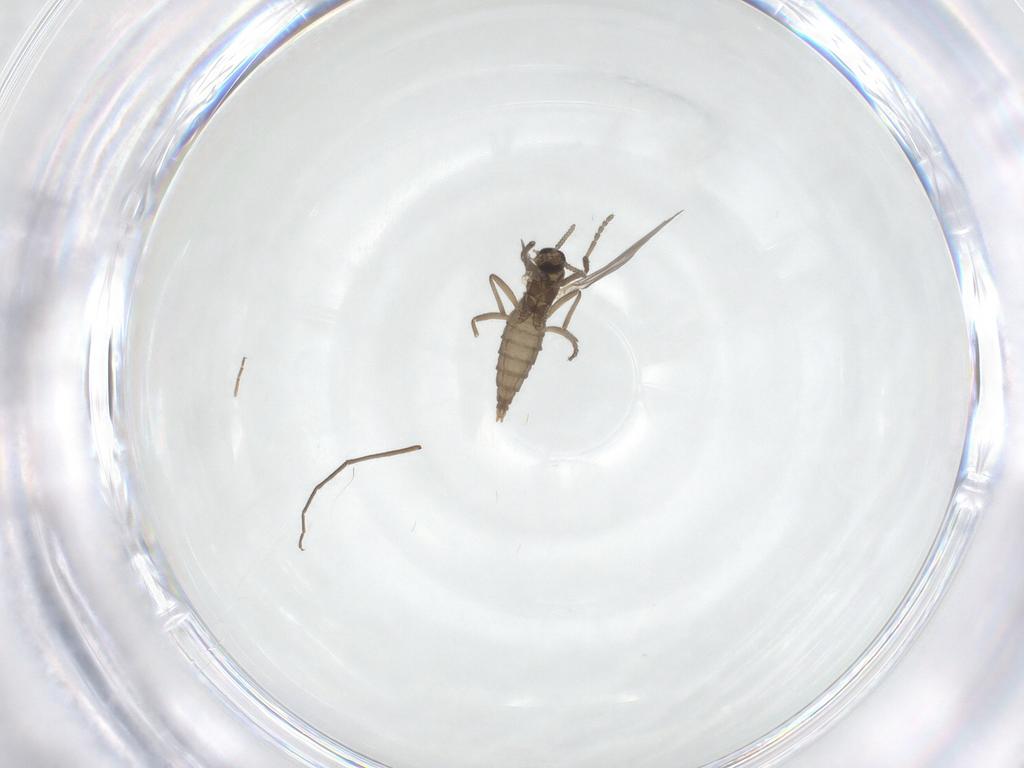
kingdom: Animalia
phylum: Arthropoda
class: Insecta
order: Diptera
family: Cecidomyiidae
